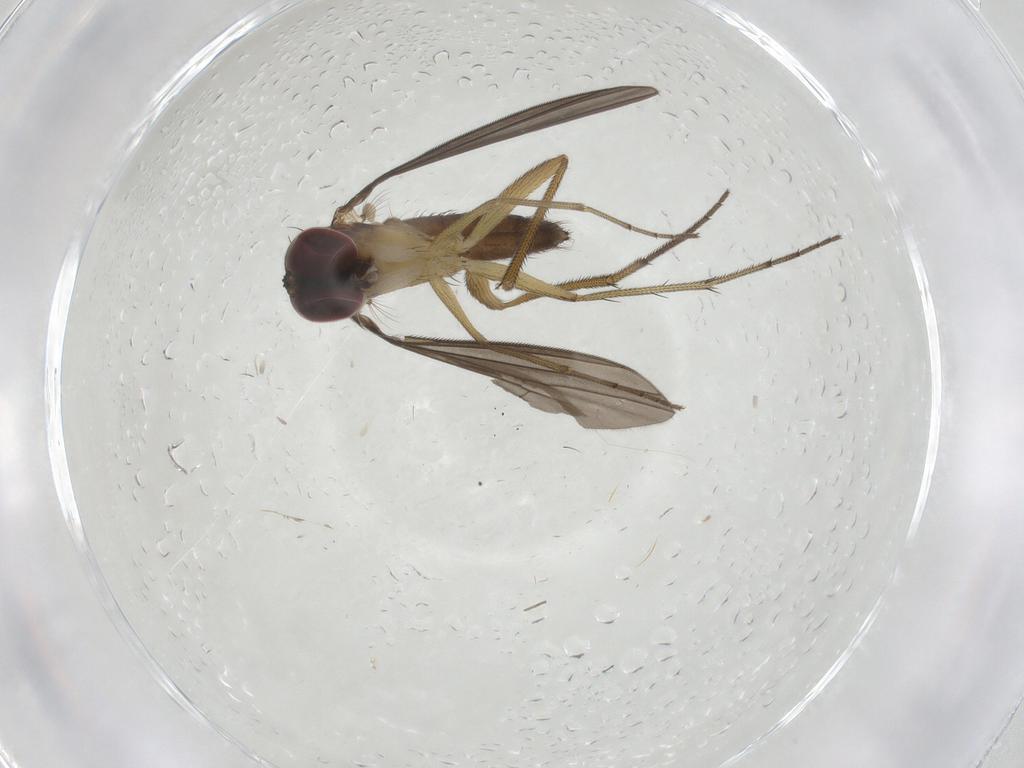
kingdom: Animalia
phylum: Arthropoda
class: Insecta
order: Diptera
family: Dolichopodidae
